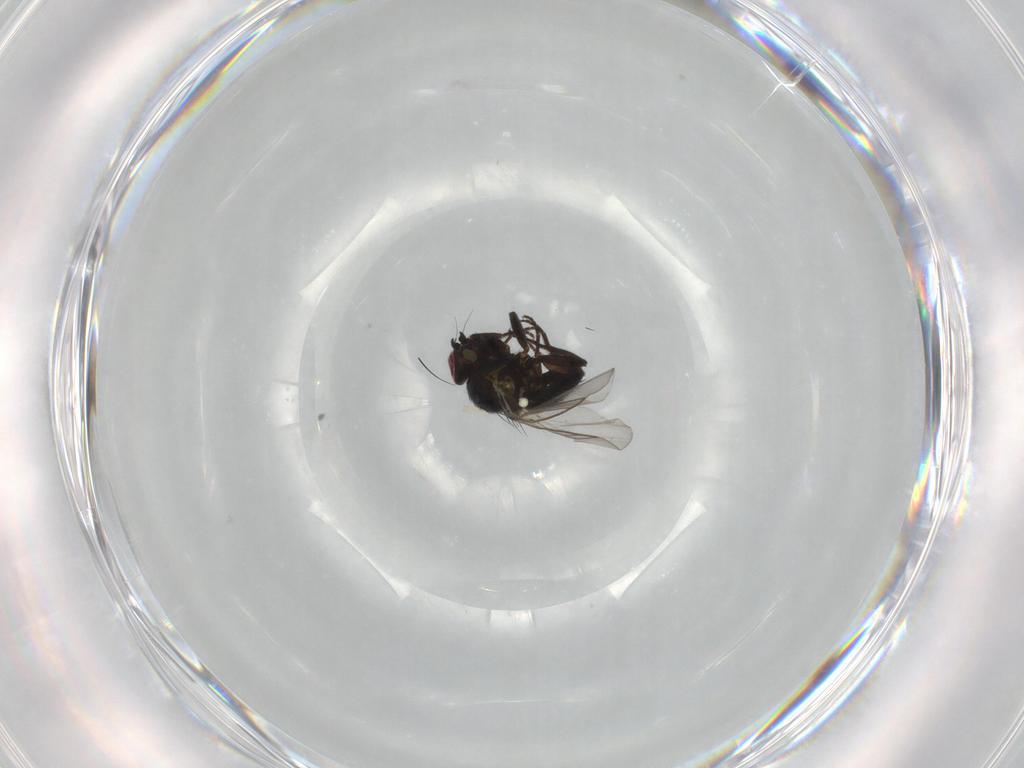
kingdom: Animalia
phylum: Arthropoda
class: Insecta
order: Diptera
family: Agromyzidae
